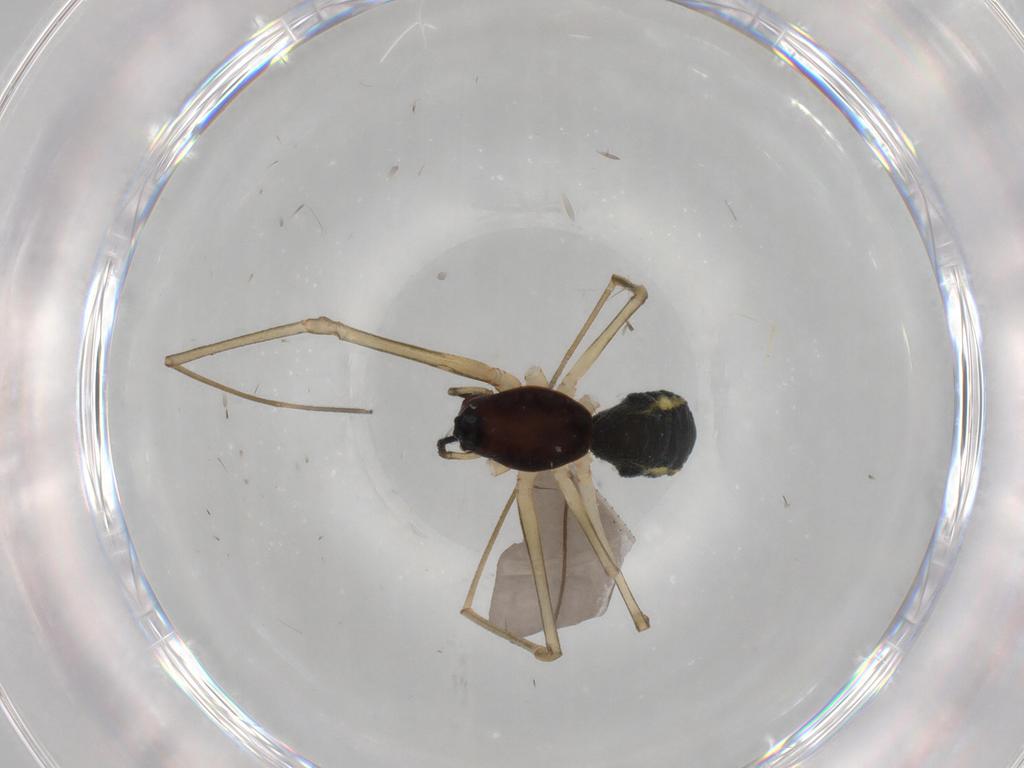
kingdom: Animalia
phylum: Arthropoda
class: Arachnida
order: Araneae
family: Linyphiidae
